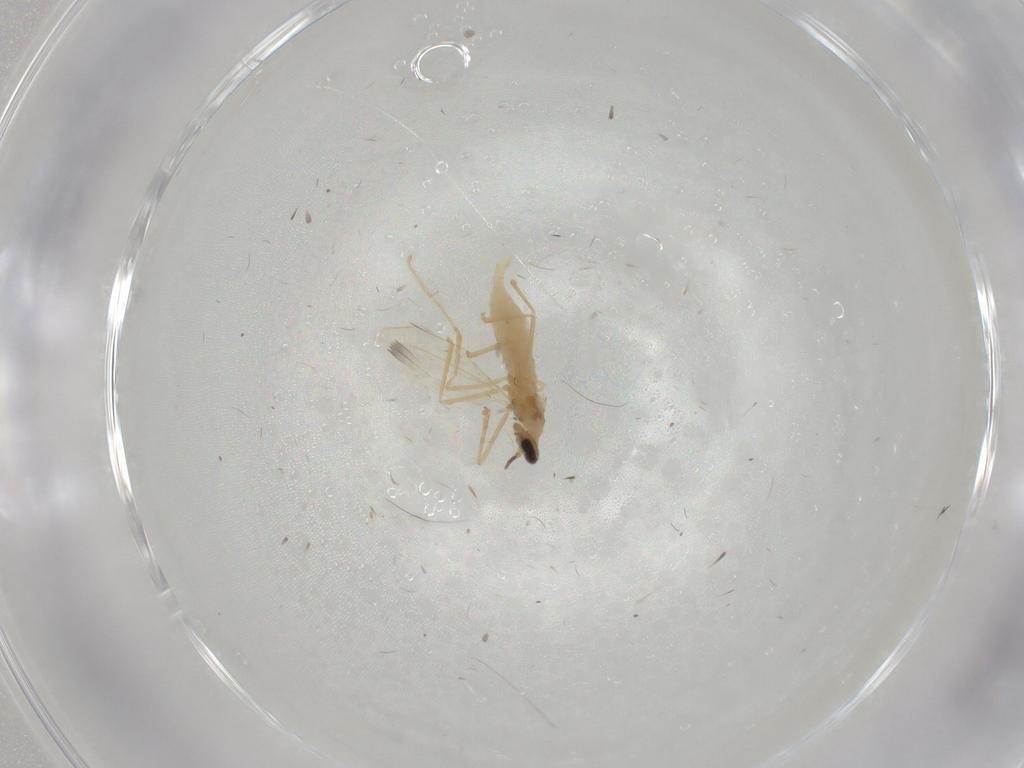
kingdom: Animalia
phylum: Arthropoda
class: Insecta
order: Diptera
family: Cecidomyiidae
